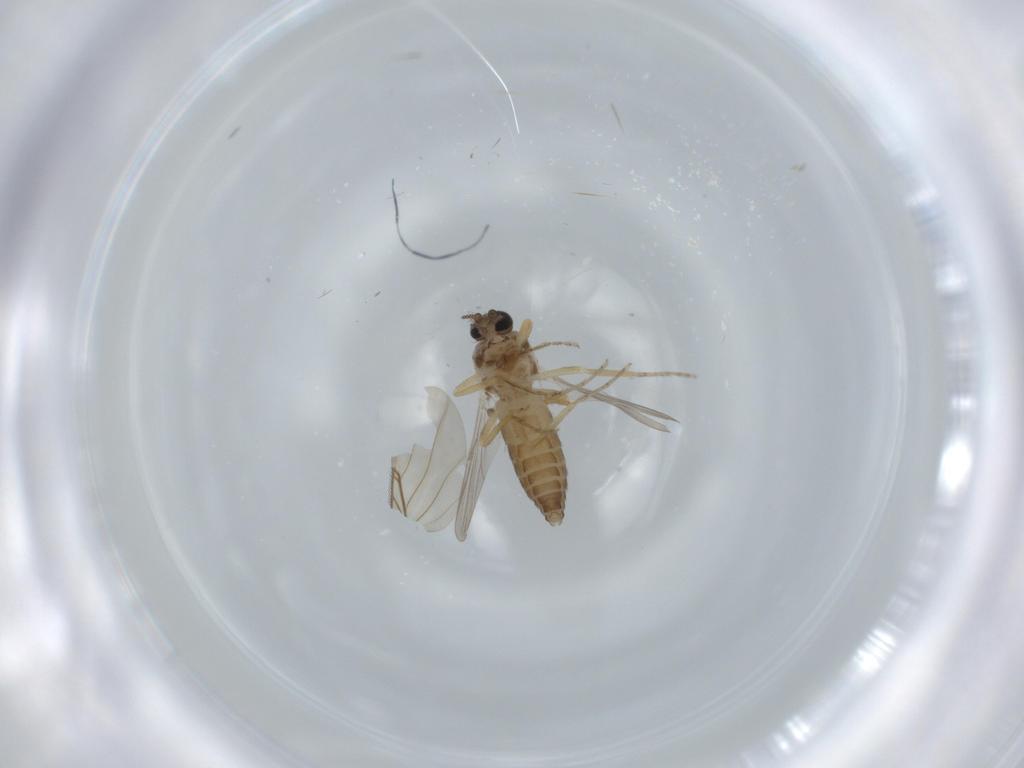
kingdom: Animalia
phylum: Arthropoda
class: Insecta
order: Diptera
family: Ceratopogonidae
